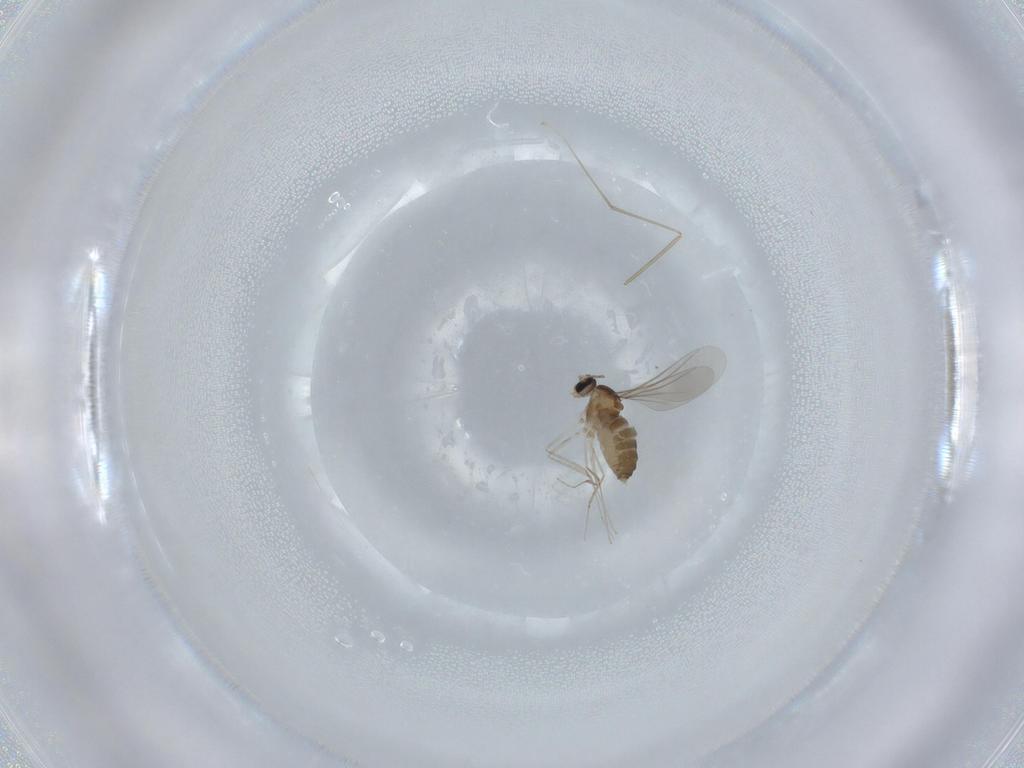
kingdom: Animalia
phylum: Arthropoda
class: Insecta
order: Diptera
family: Cecidomyiidae
